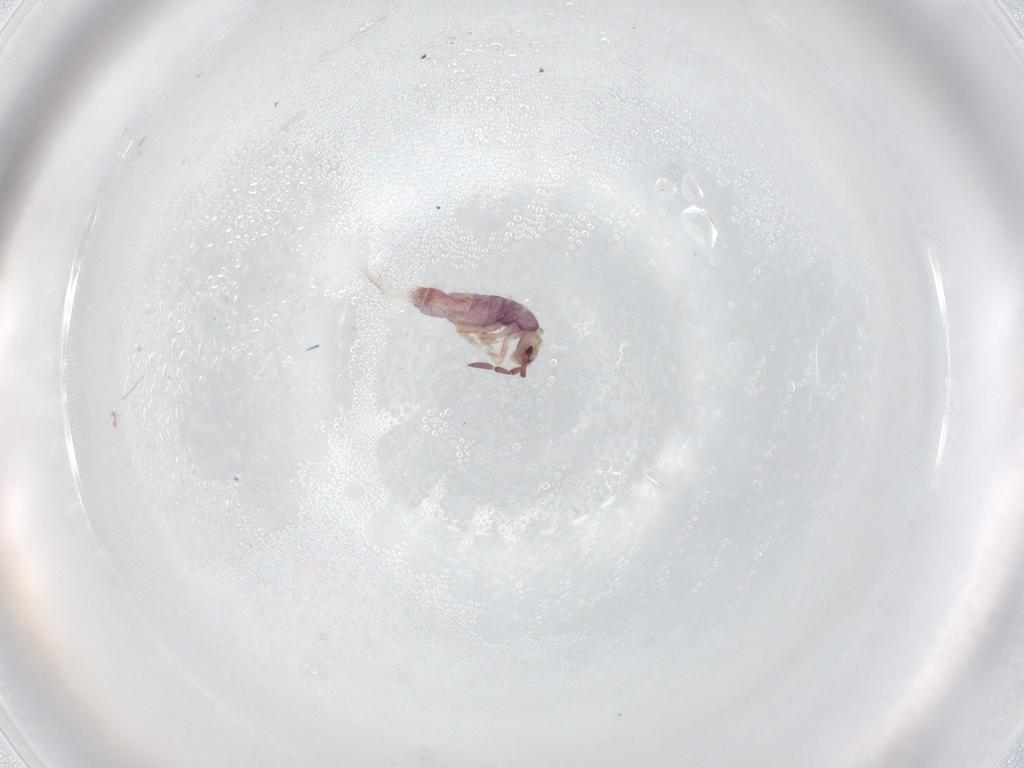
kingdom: Animalia
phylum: Arthropoda
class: Collembola
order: Entomobryomorpha
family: Entomobryidae
